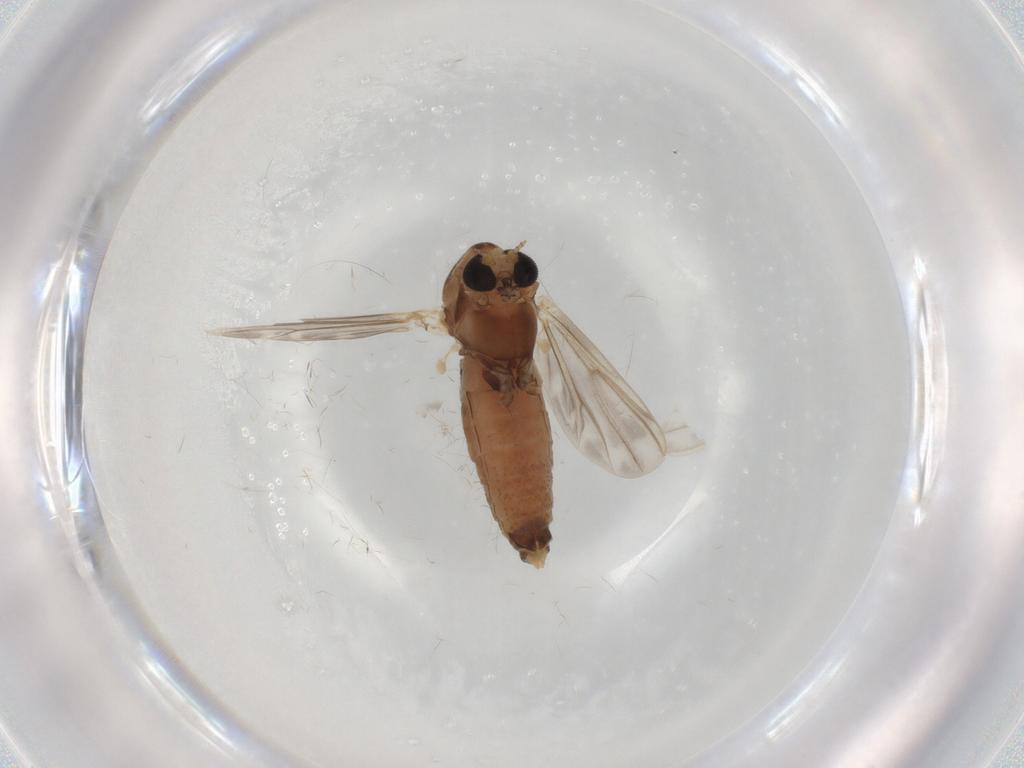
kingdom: Animalia
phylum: Arthropoda
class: Insecta
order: Diptera
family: Chironomidae
